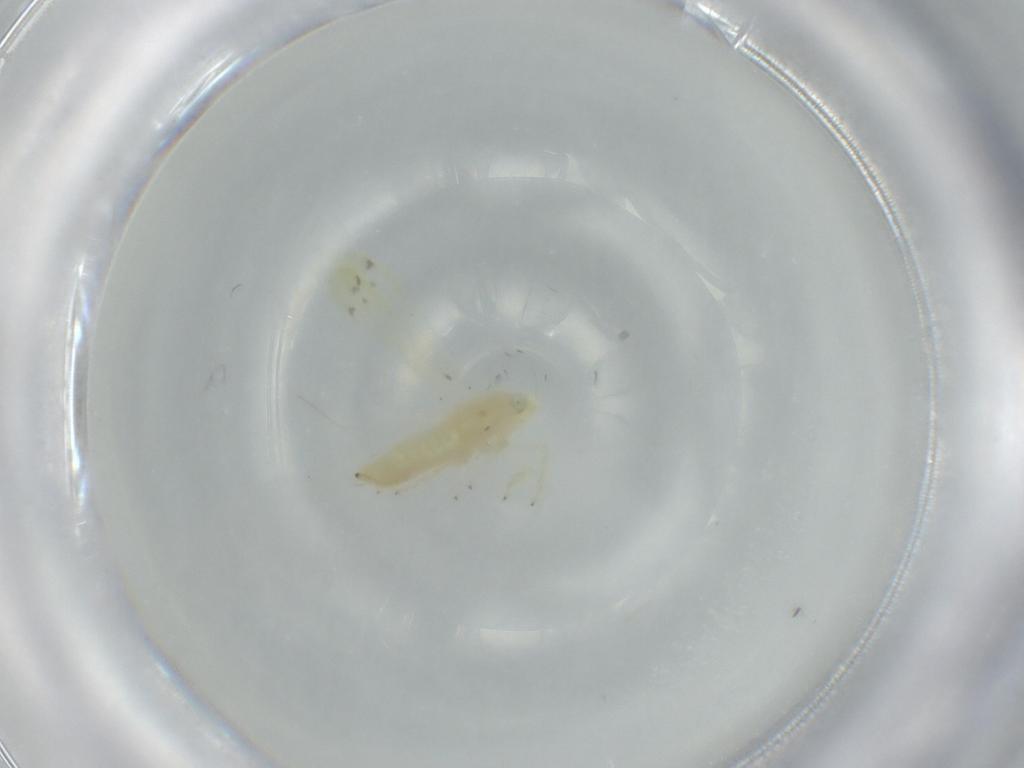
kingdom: Animalia
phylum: Arthropoda
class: Insecta
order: Hemiptera
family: Cicadellidae
